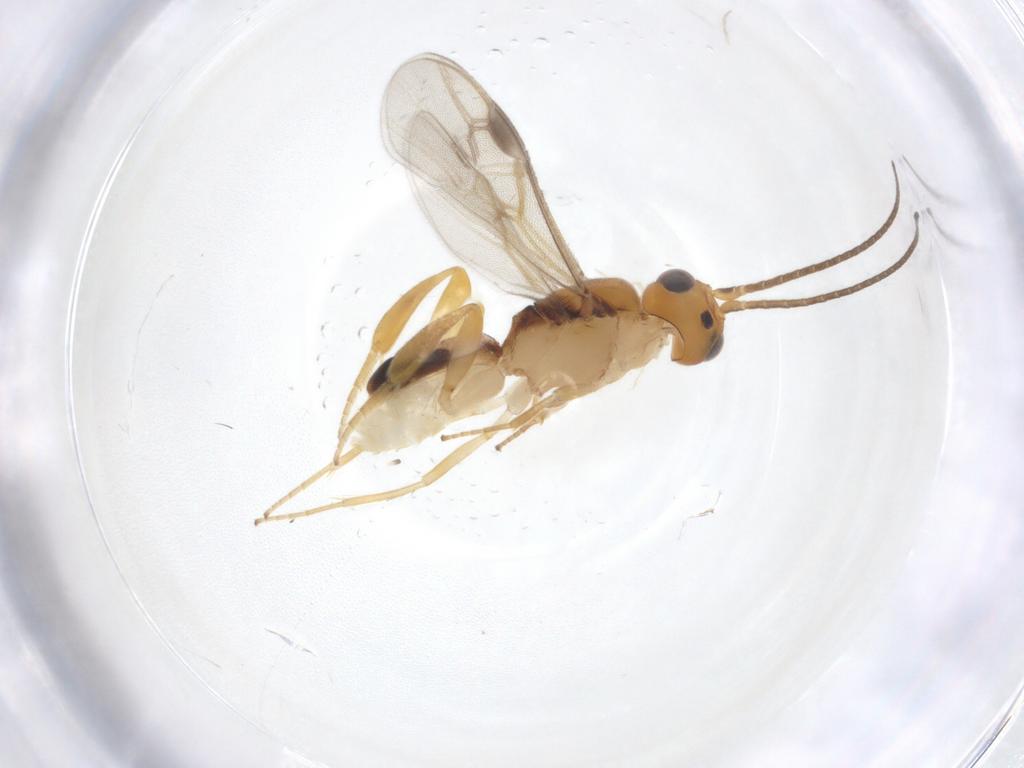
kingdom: Animalia
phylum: Arthropoda
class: Insecta
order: Hymenoptera
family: Braconidae
